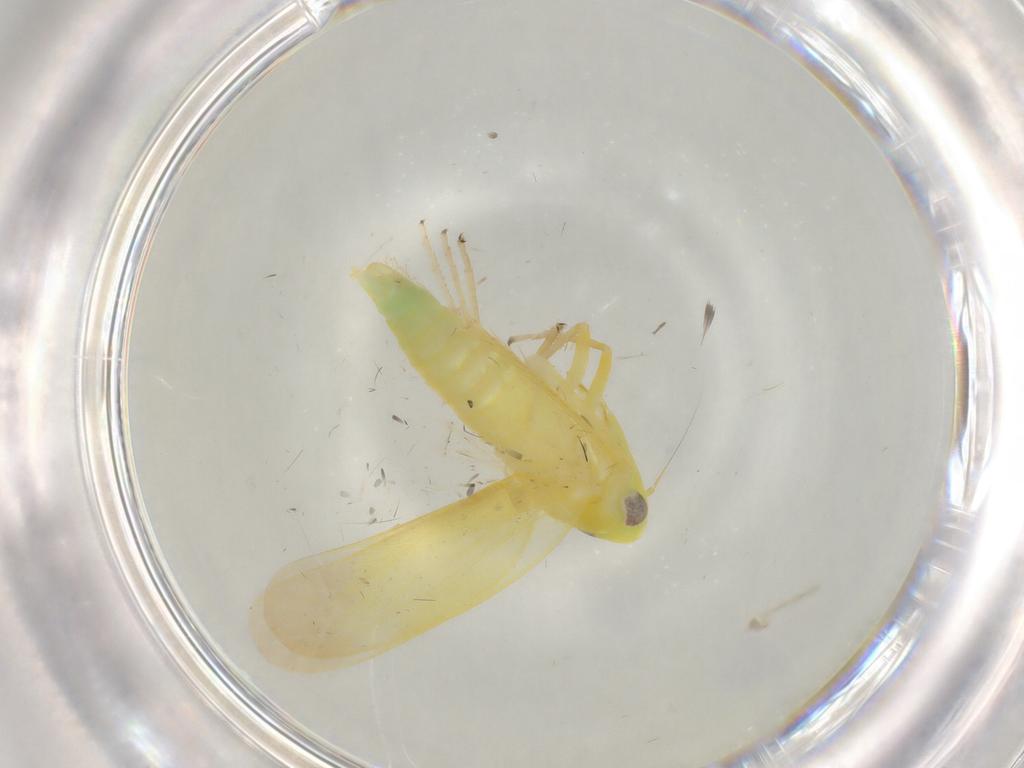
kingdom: Animalia
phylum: Arthropoda
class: Insecta
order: Hemiptera
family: Cicadellidae
